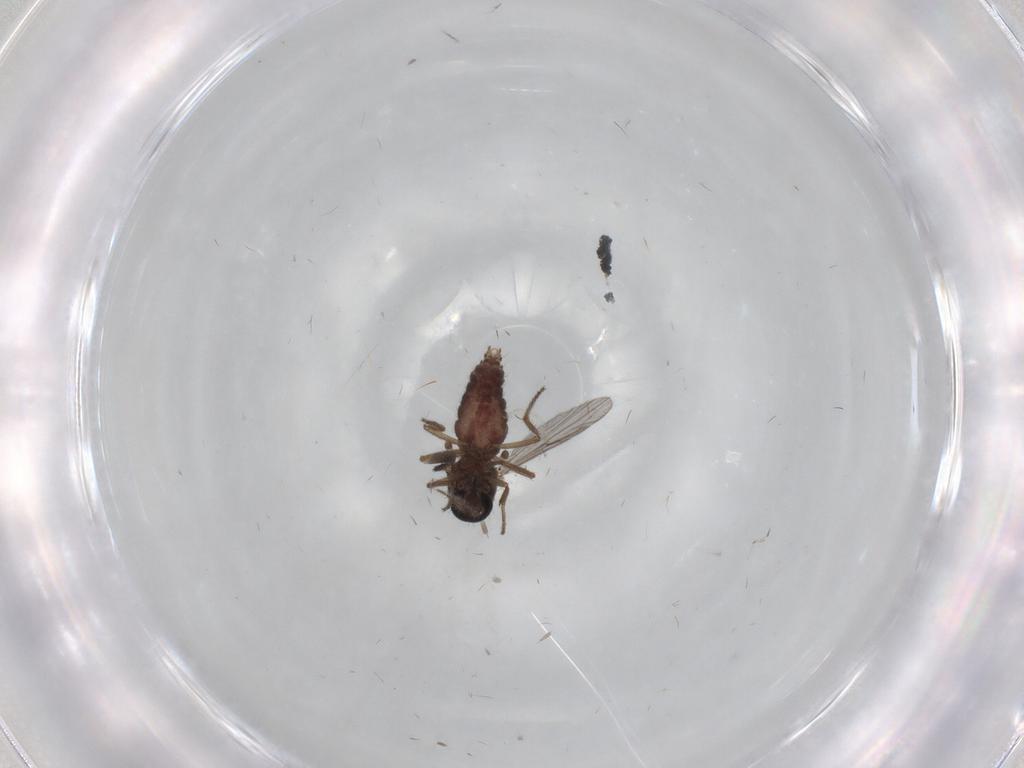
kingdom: Animalia
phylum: Arthropoda
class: Insecta
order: Diptera
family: Ceratopogonidae
